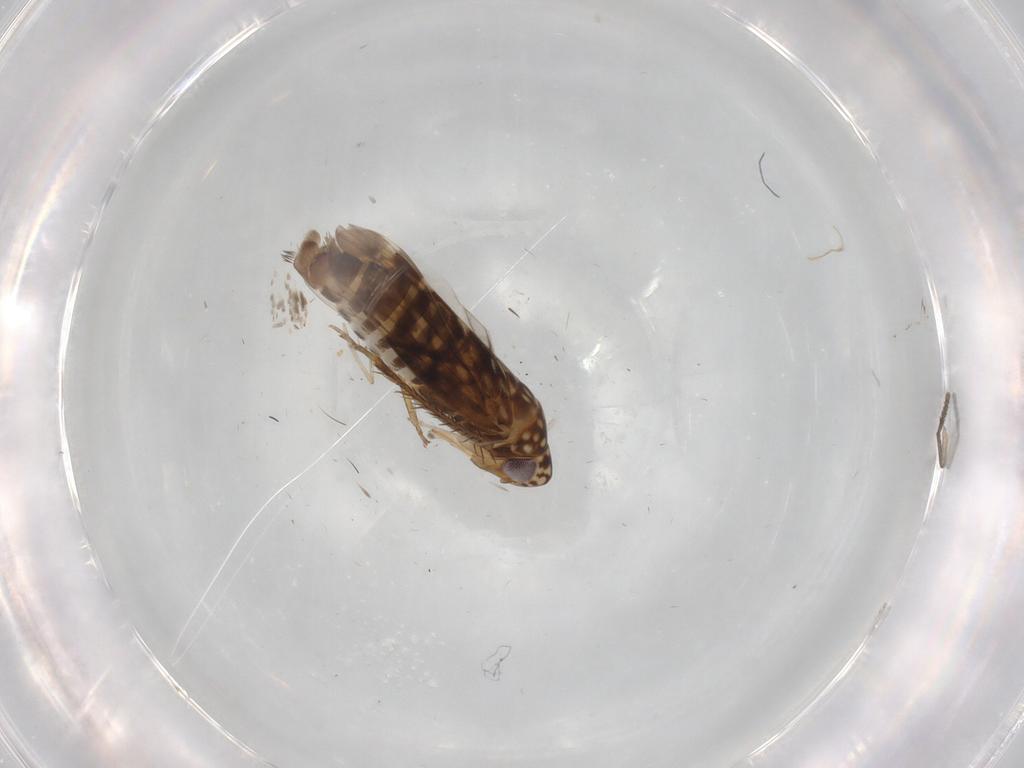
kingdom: Animalia
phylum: Arthropoda
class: Insecta
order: Hemiptera
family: Cicadellidae
